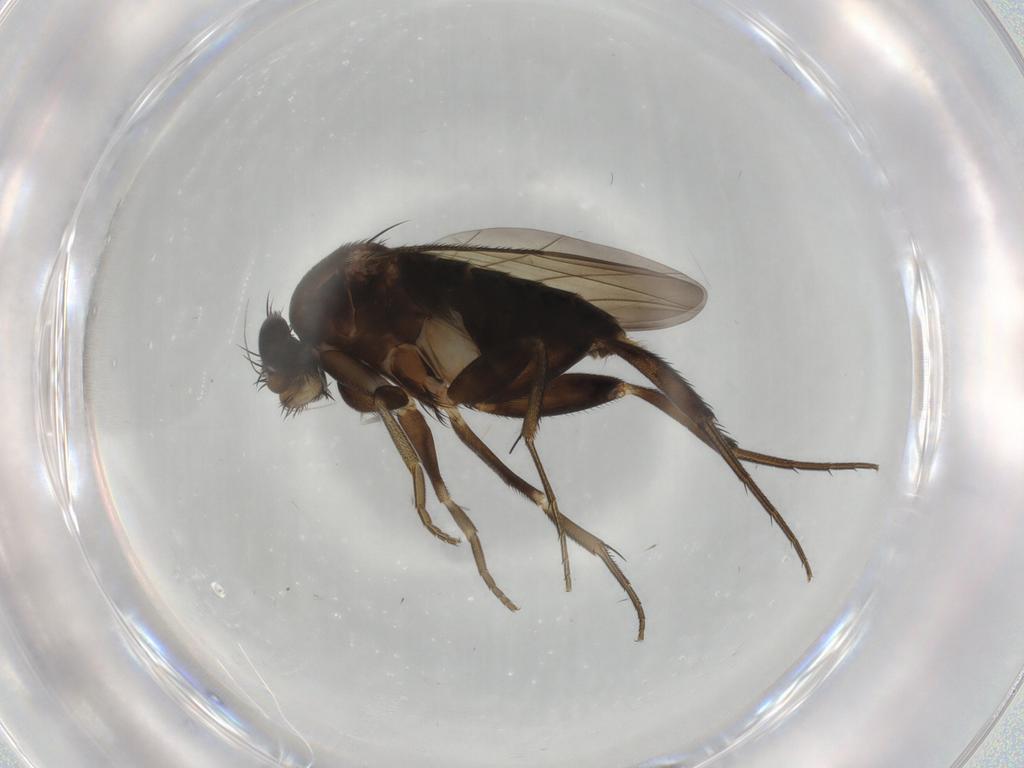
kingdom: Animalia
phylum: Arthropoda
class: Insecta
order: Diptera
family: Phoridae
